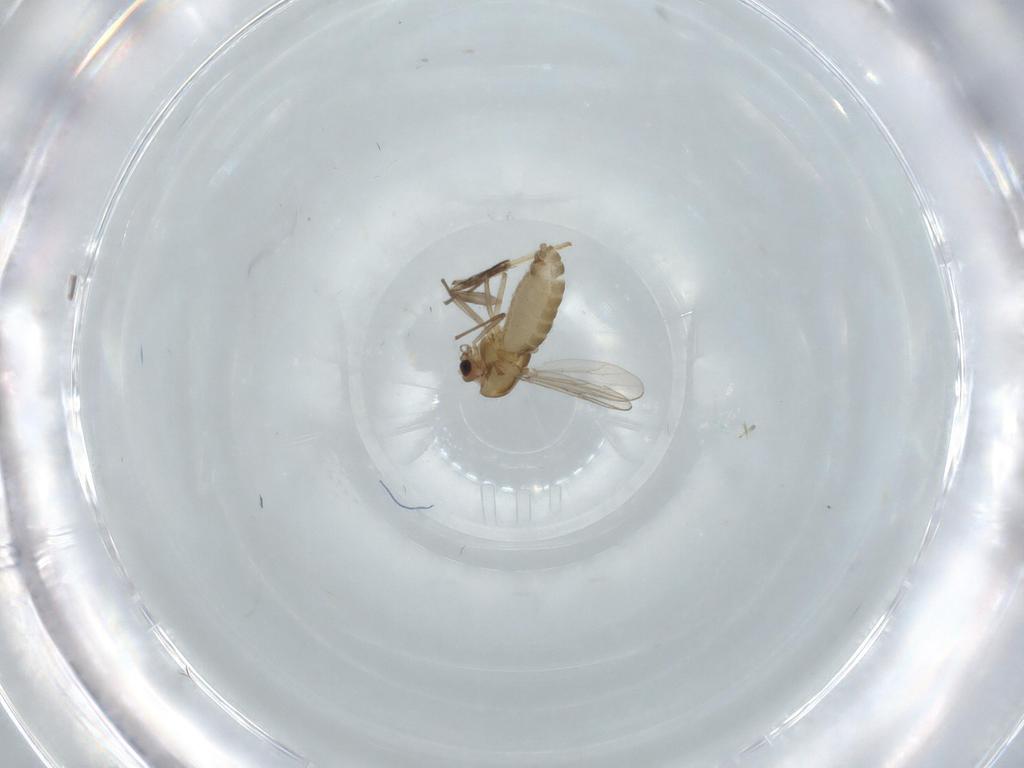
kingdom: Animalia
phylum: Arthropoda
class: Insecta
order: Diptera
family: Chironomidae
